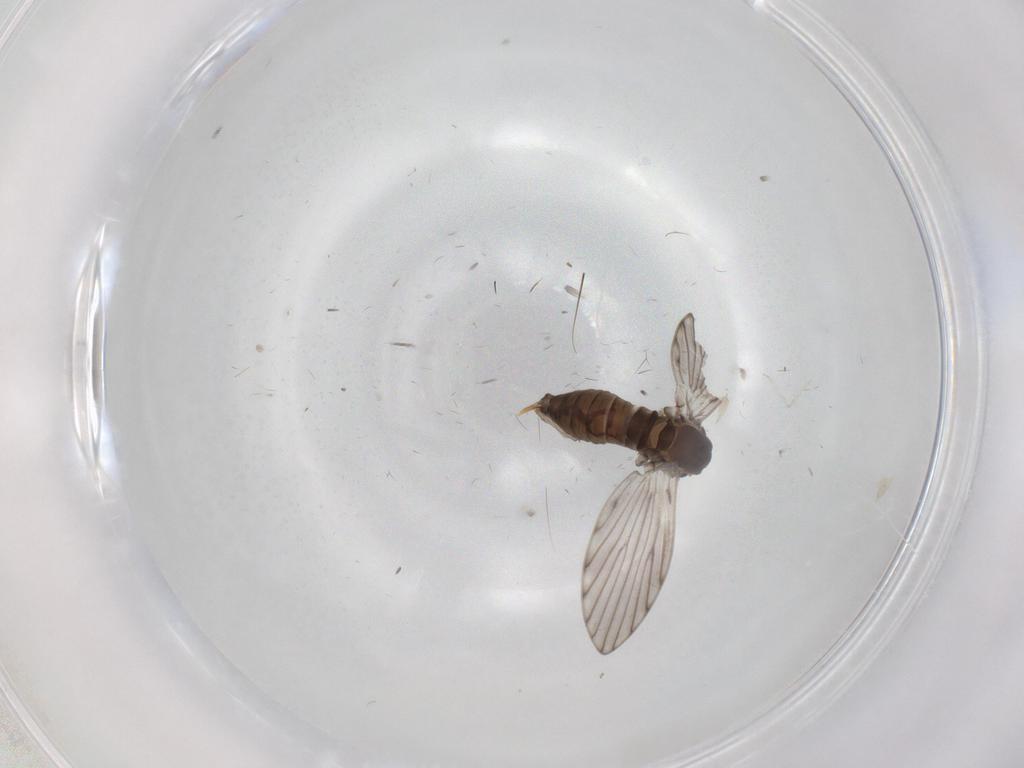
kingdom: Animalia
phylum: Arthropoda
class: Insecta
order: Diptera
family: Psychodidae
